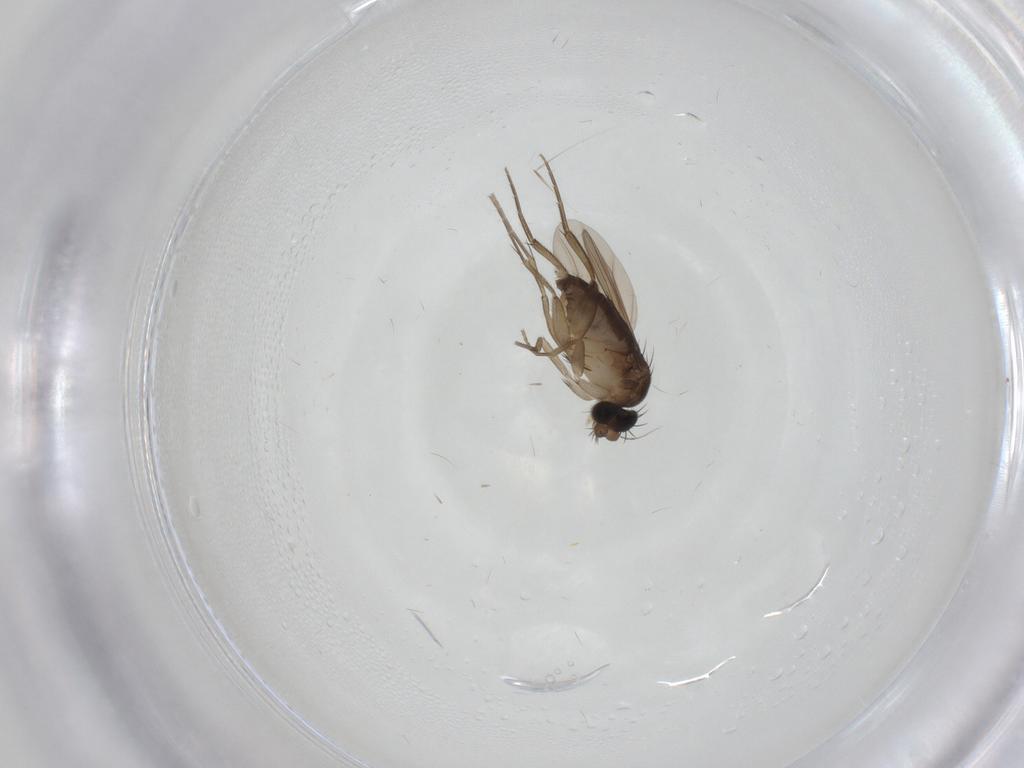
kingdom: Animalia
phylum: Arthropoda
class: Insecta
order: Diptera
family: Phoridae
